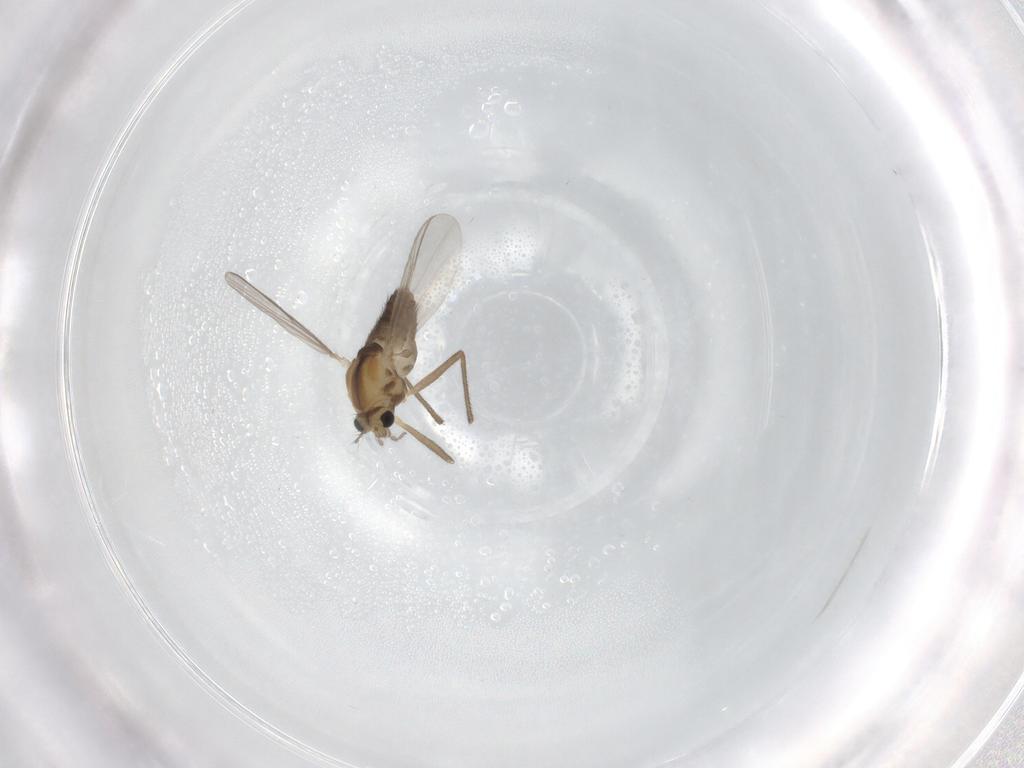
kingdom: Animalia
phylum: Arthropoda
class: Insecta
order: Diptera
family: Chironomidae
